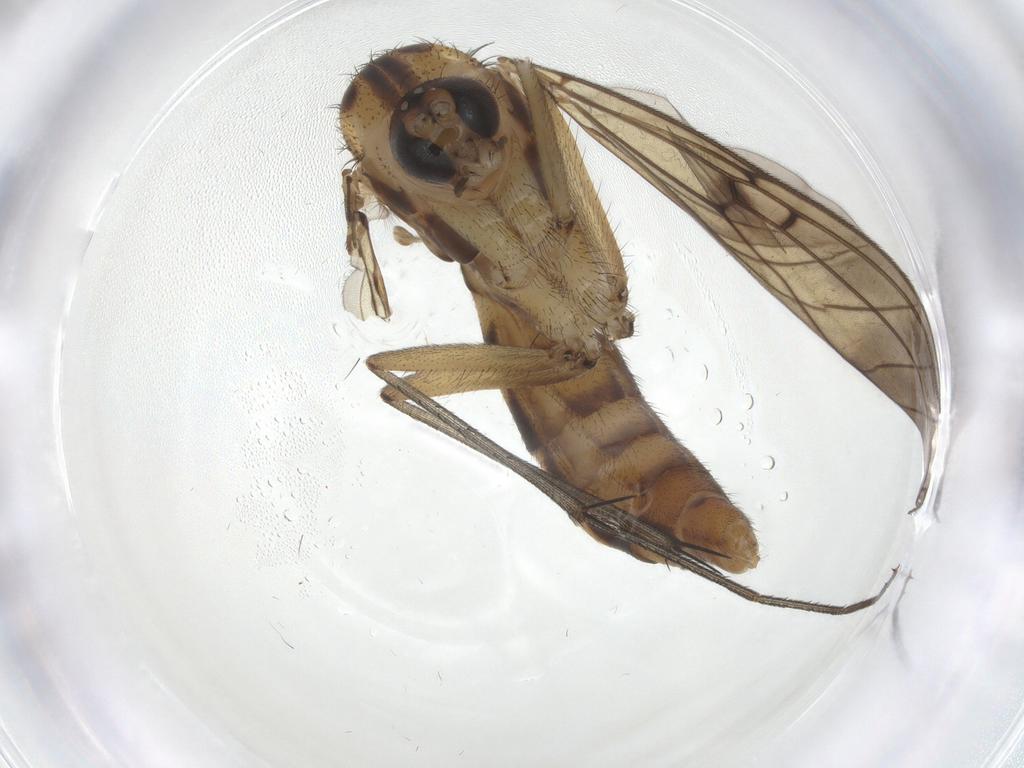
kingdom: Animalia
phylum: Arthropoda
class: Insecta
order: Diptera
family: Mycetophilidae
